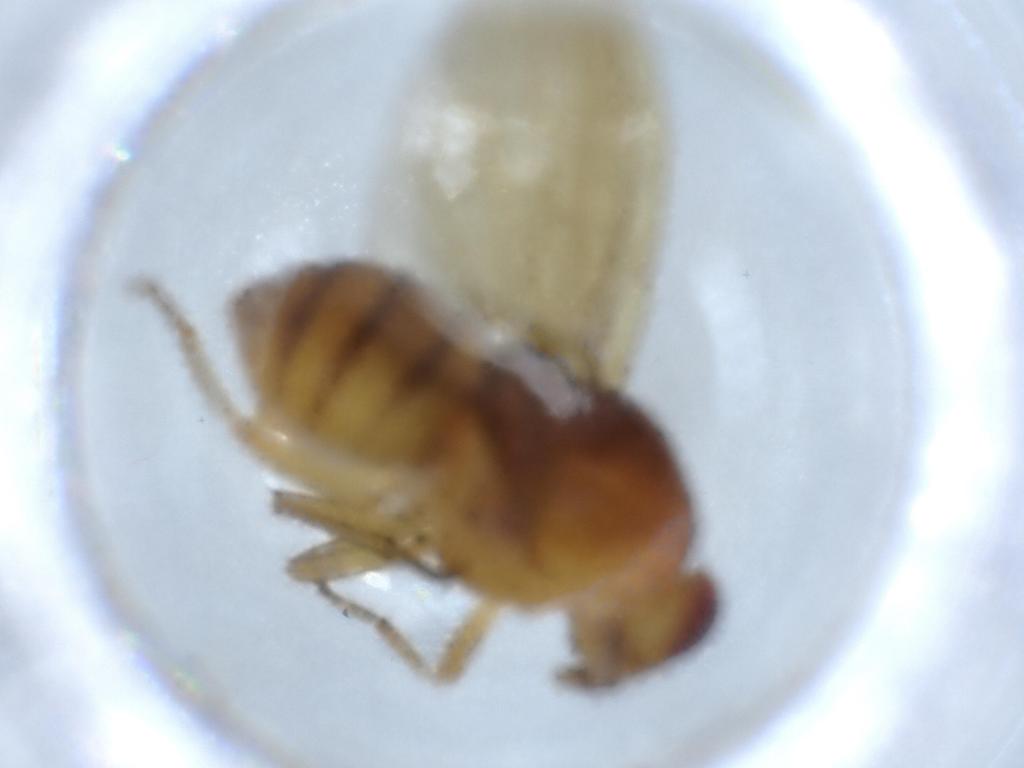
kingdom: Animalia
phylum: Arthropoda
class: Insecta
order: Diptera
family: Dolichopodidae
